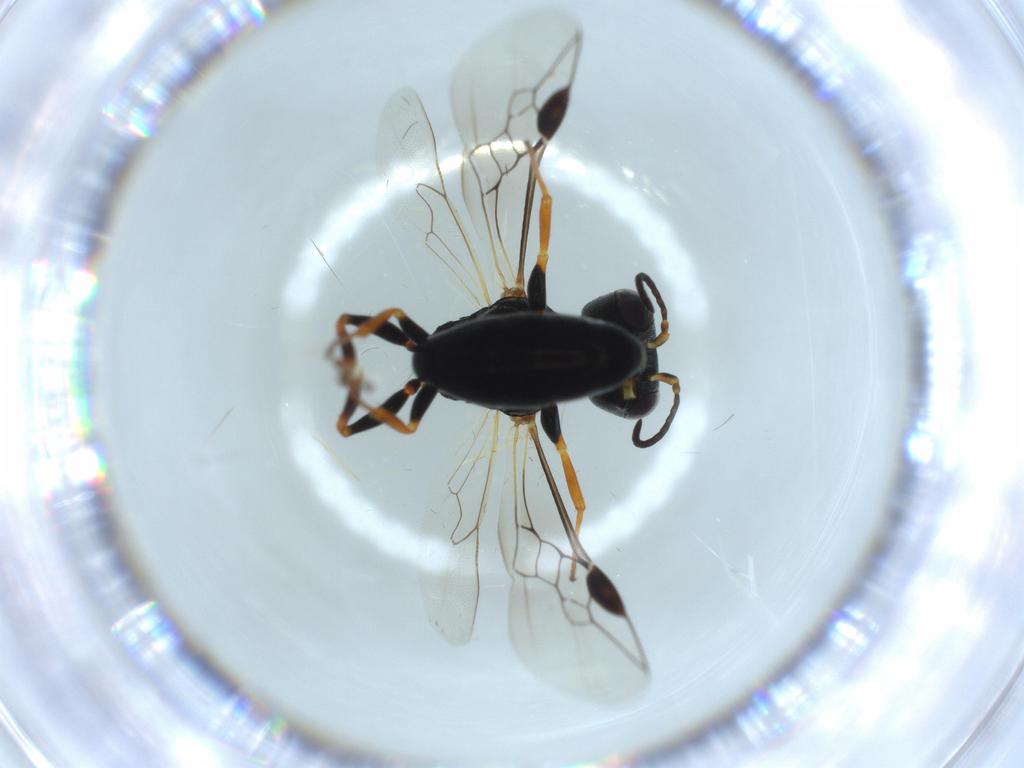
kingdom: Animalia
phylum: Arthropoda
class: Insecta
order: Hymenoptera
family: Crabronidae
